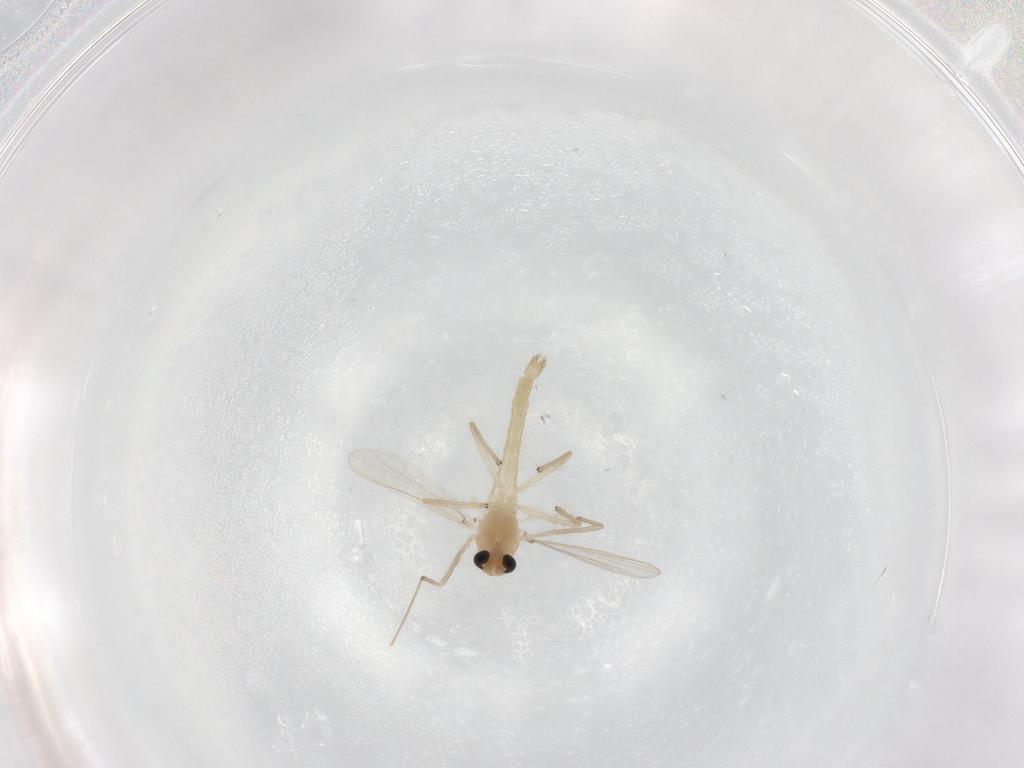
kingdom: Animalia
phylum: Arthropoda
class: Insecta
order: Diptera
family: Chironomidae
